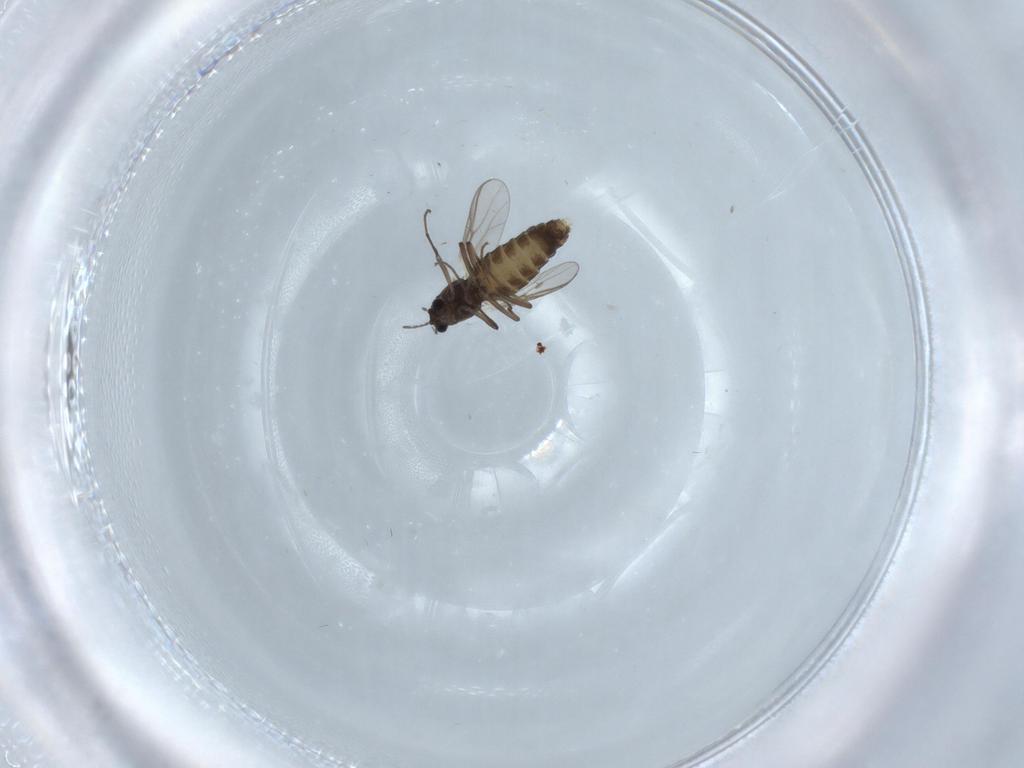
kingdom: Animalia
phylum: Arthropoda
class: Insecta
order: Diptera
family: Chironomidae
